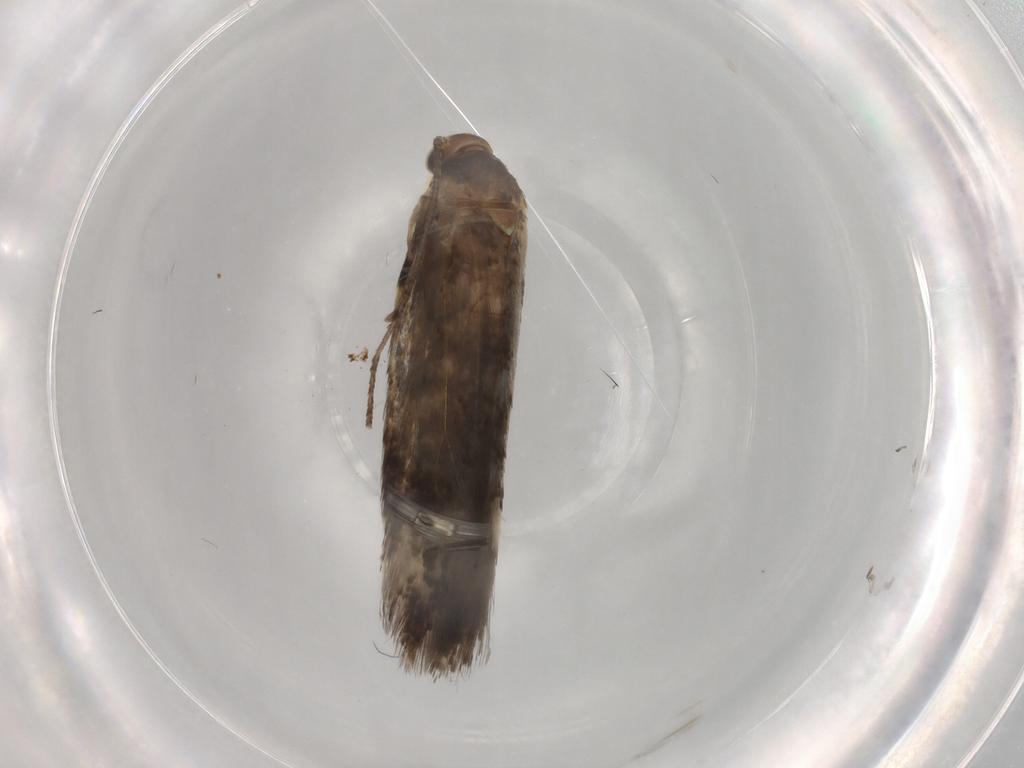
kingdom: Animalia
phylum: Arthropoda
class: Insecta
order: Lepidoptera
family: Elachistidae
